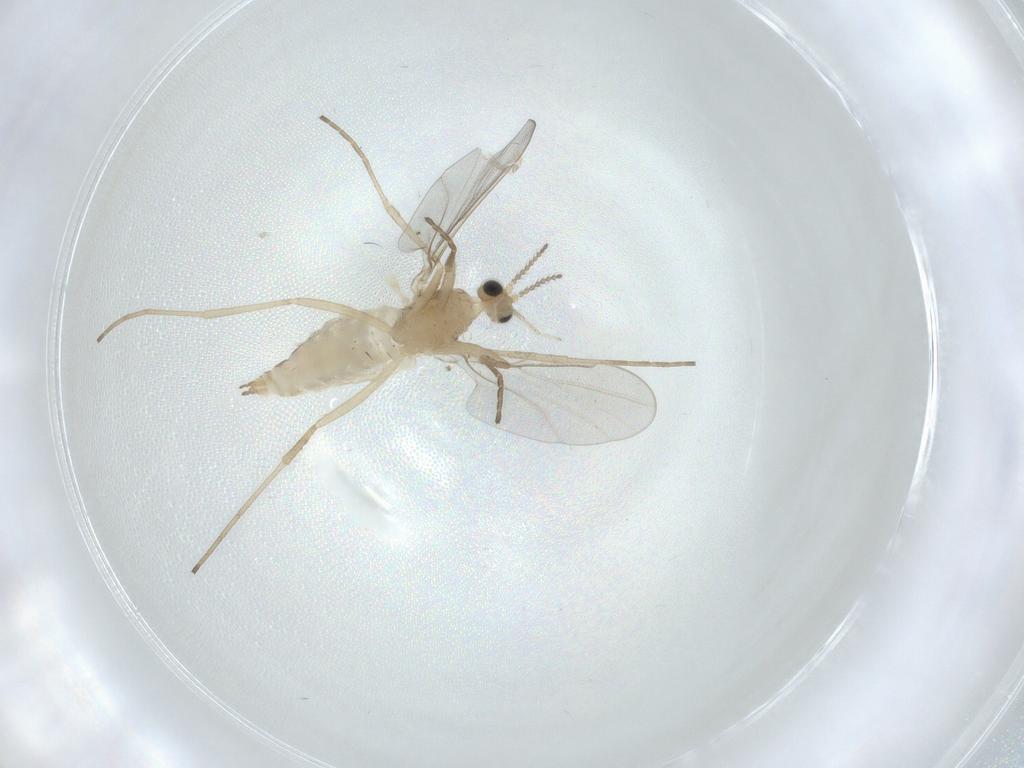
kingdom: Animalia
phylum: Arthropoda
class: Insecta
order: Diptera
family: Cecidomyiidae
